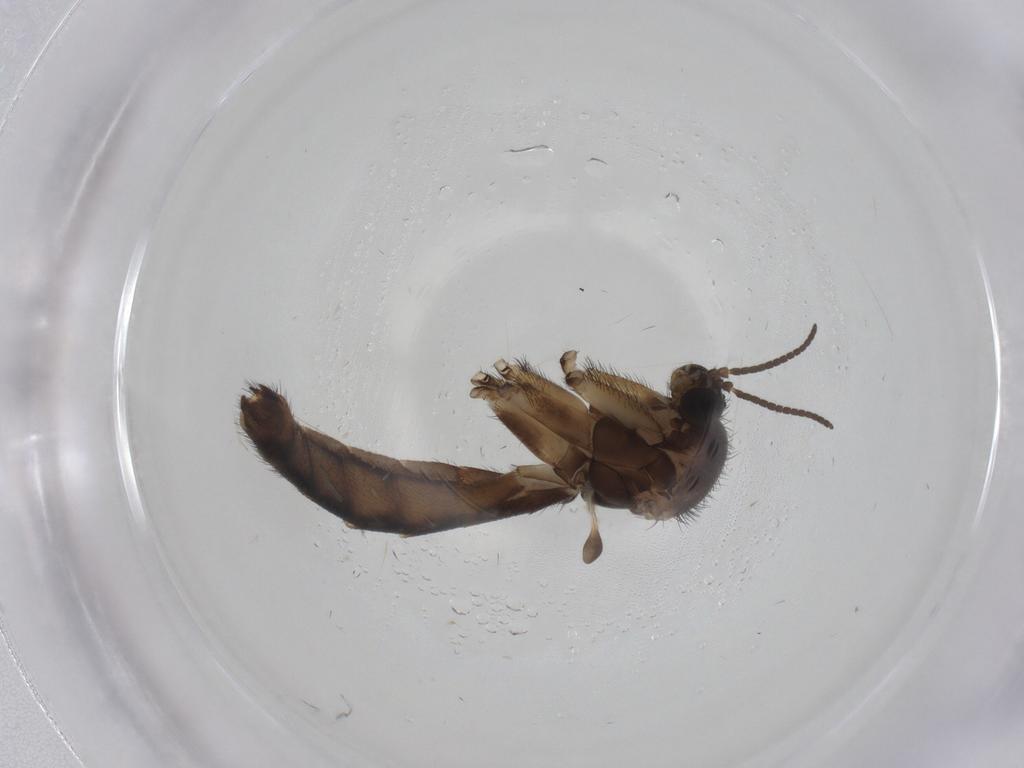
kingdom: Animalia
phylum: Arthropoda
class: Insecta
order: Diptera
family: Keroplatidae
